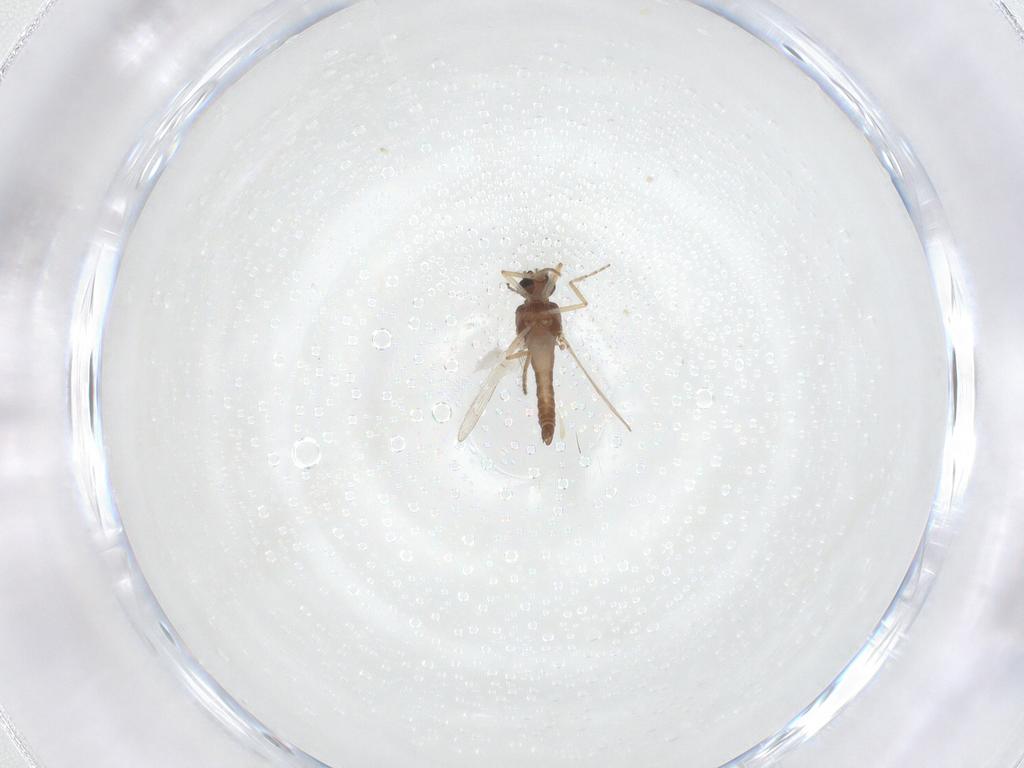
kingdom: Animalia
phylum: Arthropoda
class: Insecta
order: Diptera
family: Ceratopogonidae
